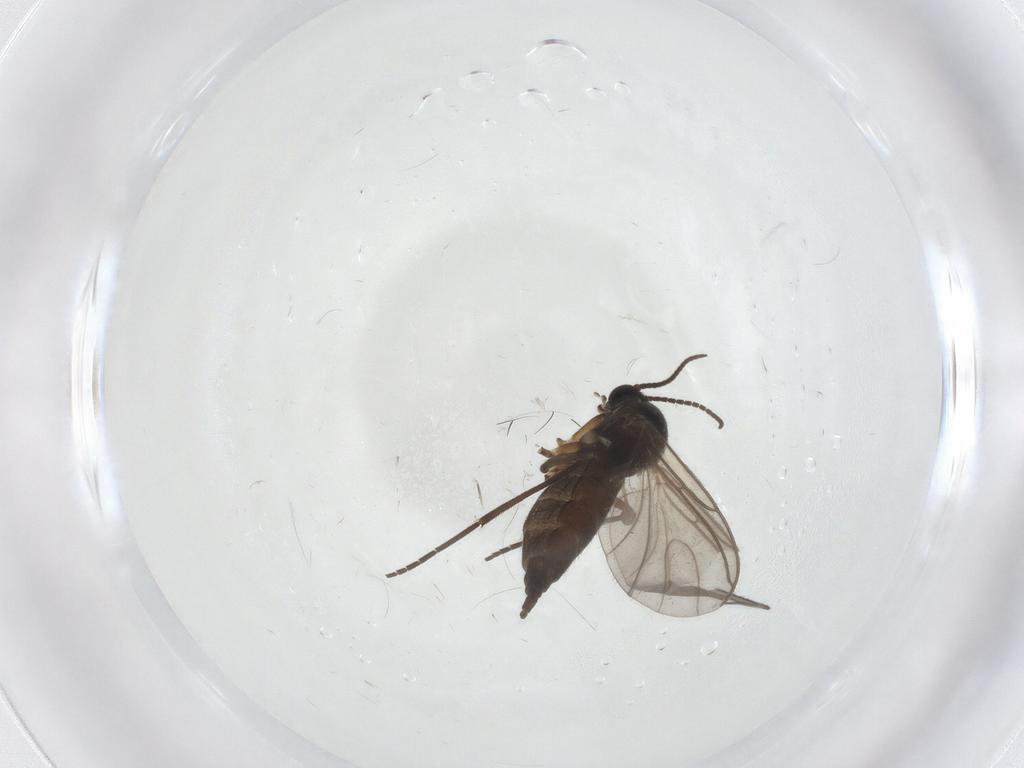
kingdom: Animalia
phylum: Arthropoda
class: Insecta
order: Diptera
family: Sciaridae
